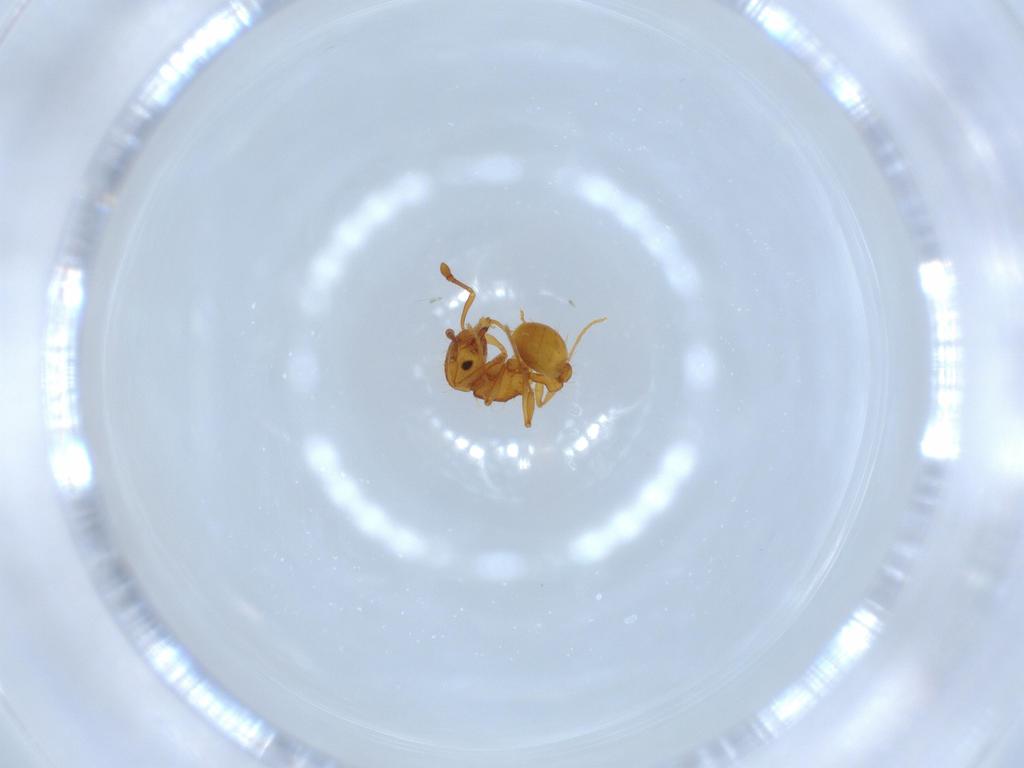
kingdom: Animalia
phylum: Arthropoda
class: Insecta
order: Hymenoptera
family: Formicidae
